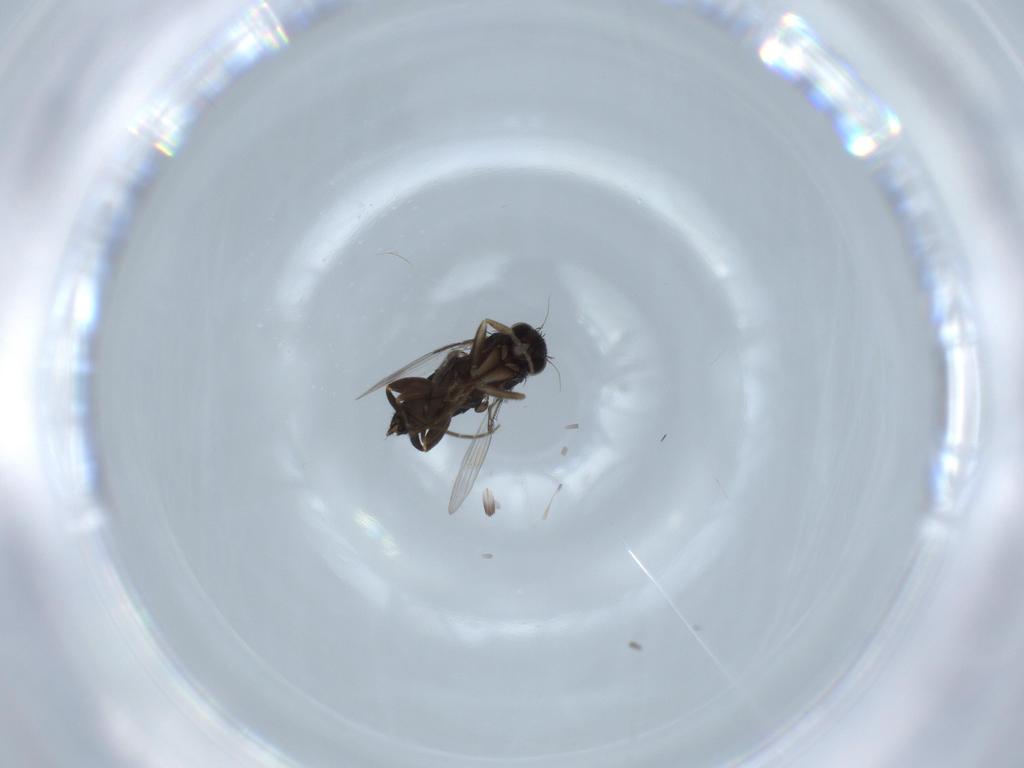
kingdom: Animalia
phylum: Arthropoda
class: Insecta
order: Diptera
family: Phoridae
